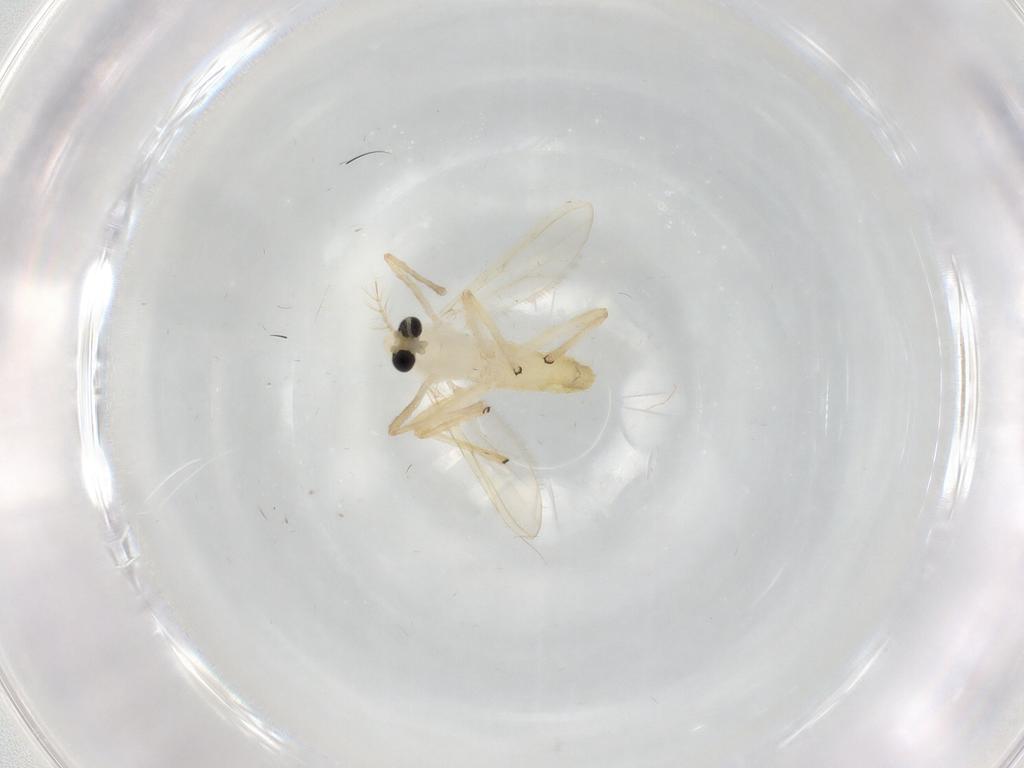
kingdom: Animalia
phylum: Arthropoda
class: Insecta
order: Diptera
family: Chironomidae
